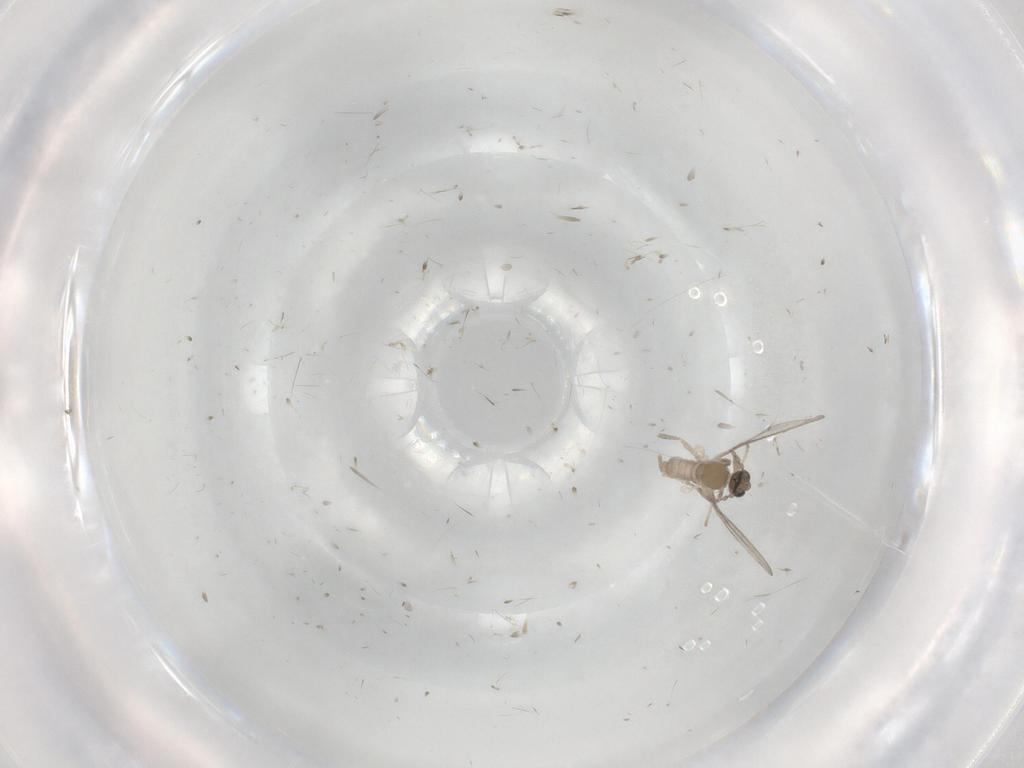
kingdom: Animalia
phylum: Arthropoda
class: Insecta
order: Diptera
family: Cecidomyiidae
